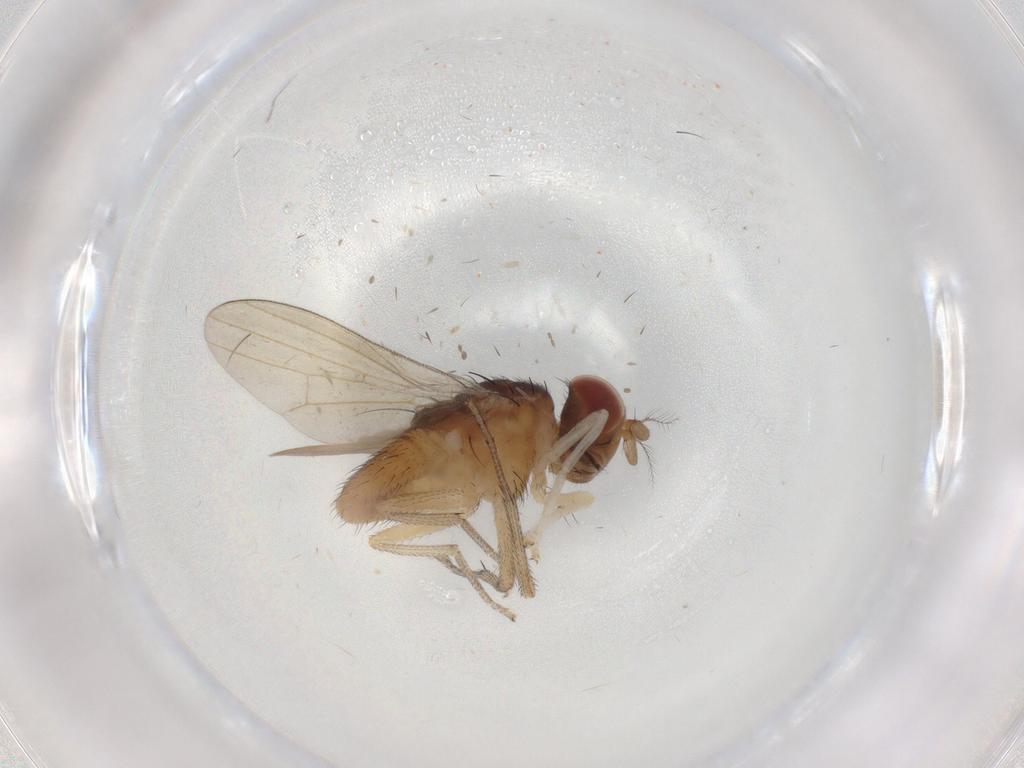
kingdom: Animalia
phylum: Arthropoda
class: Insecta
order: Diptera
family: Lauxaniidae
